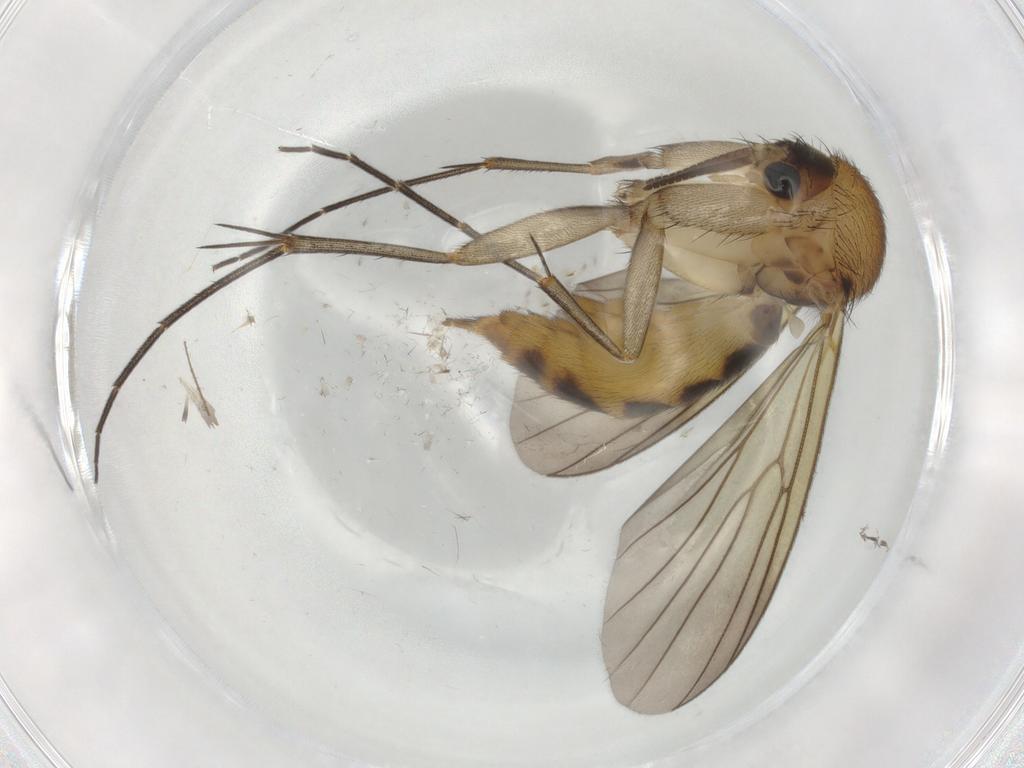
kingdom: Animalia
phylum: Arthropoda
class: Insecta
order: Diptera
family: Mycetophilidae
